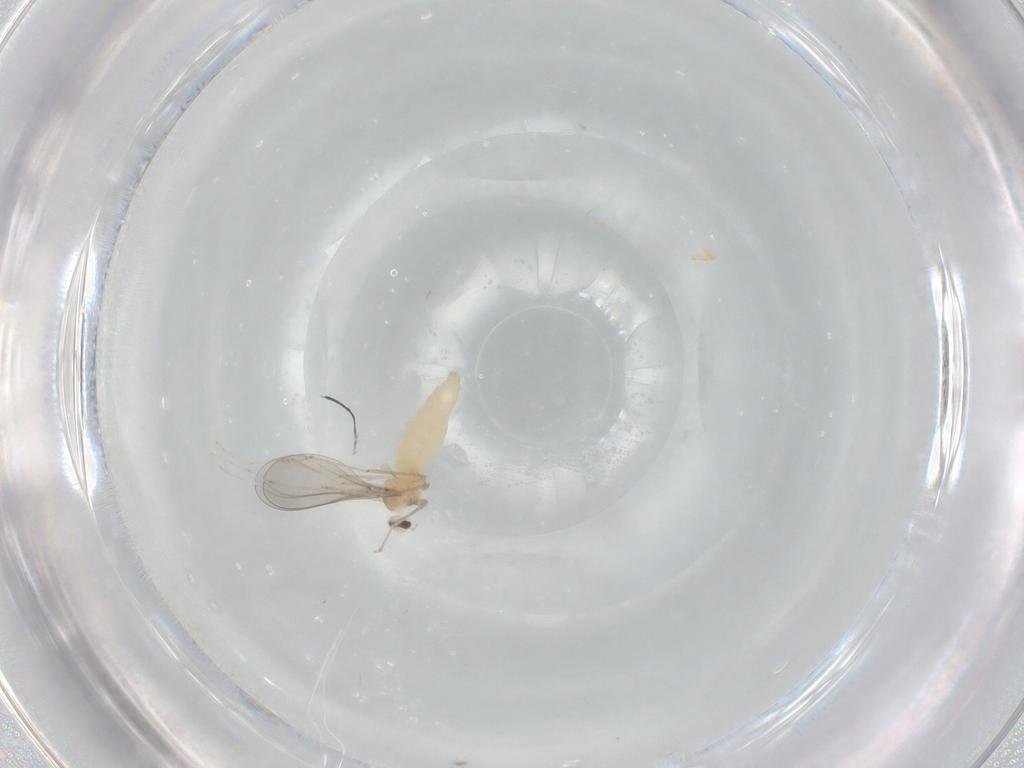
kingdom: Animalia
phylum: Arthropoda
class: Insecta
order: Diptera
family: Cecidomyiidae
